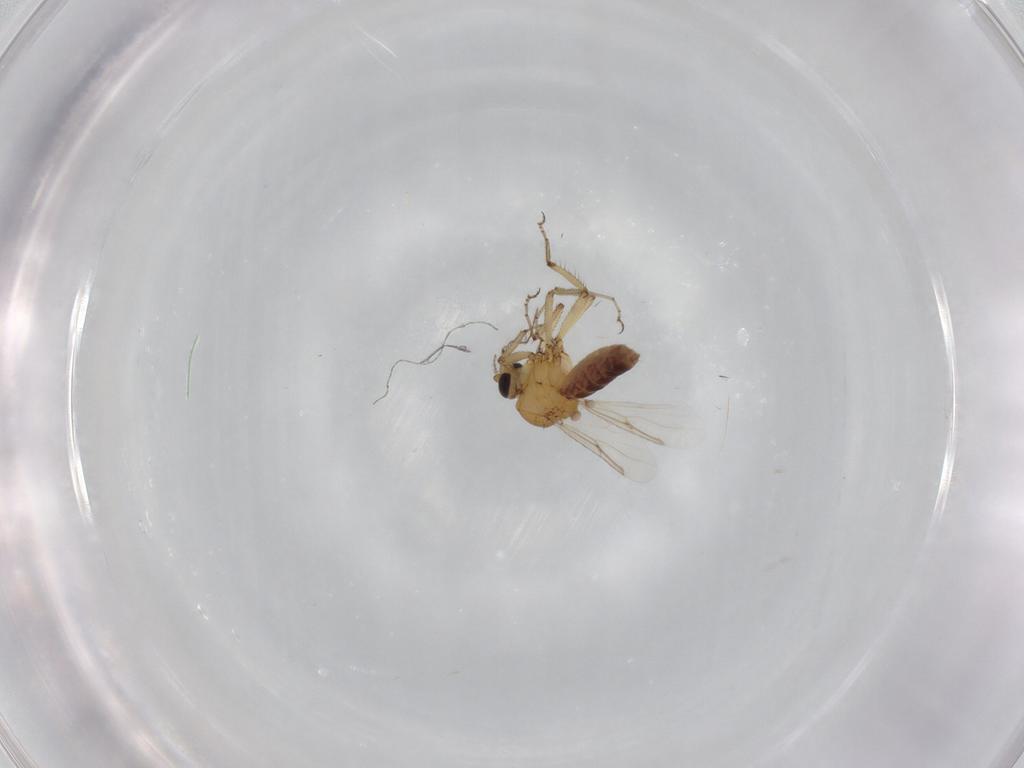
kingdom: Animalia
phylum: Arthropoda
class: Insecta
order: Diptera
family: Ceratopogonidae
